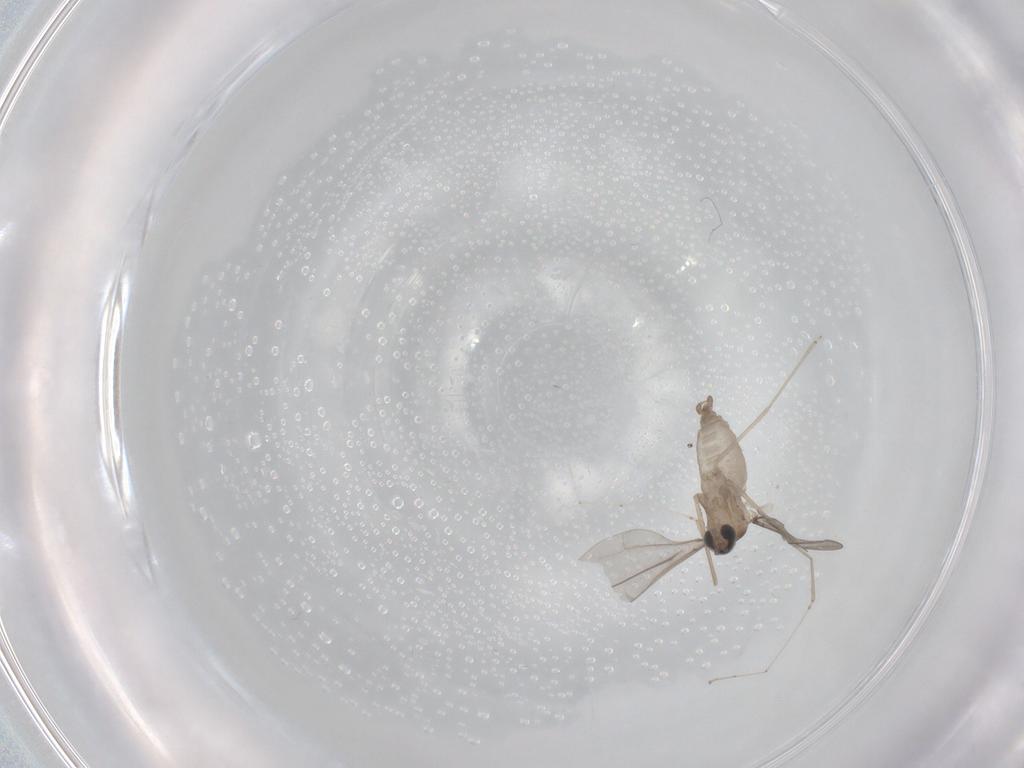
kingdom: Animalia
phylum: Arthropoda
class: Insecta
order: Diptera
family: Cecidomyiidae
